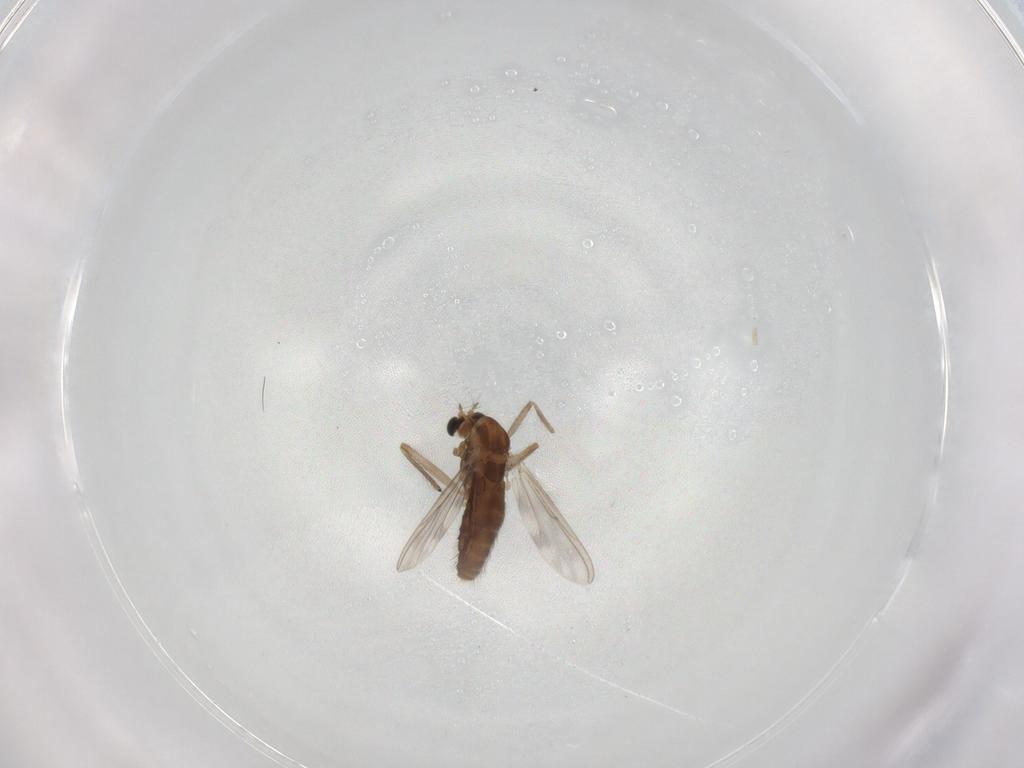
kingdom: Animalia
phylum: Arthropoda
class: Insecta
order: Diptera
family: Chironomidae
